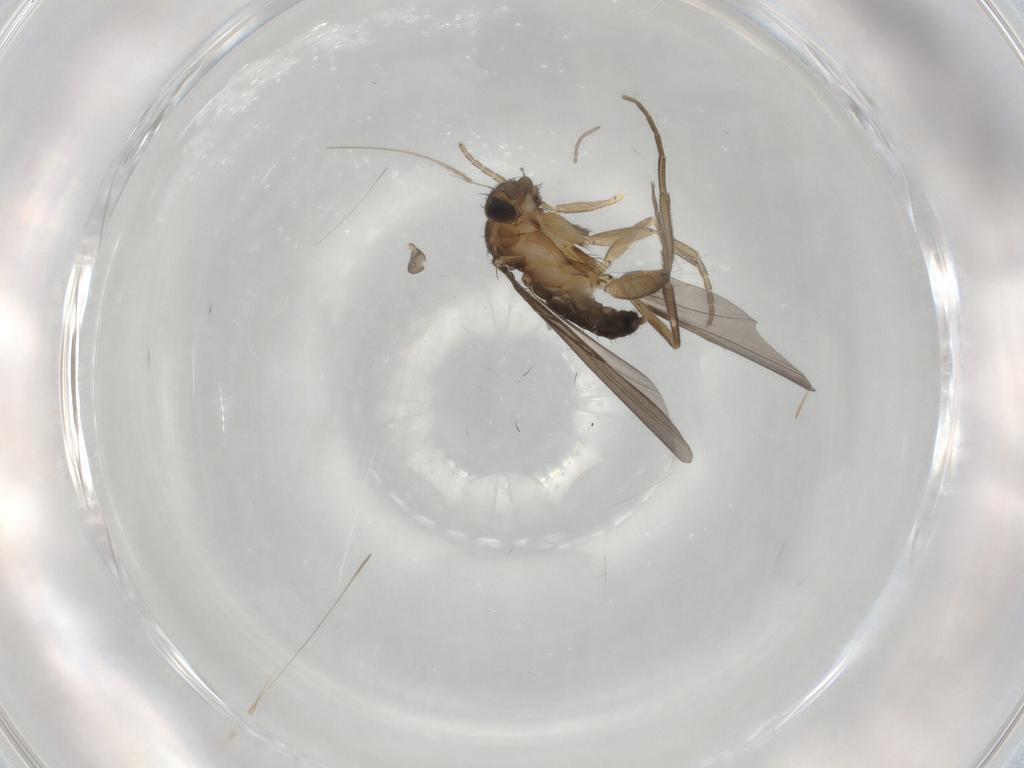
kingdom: Animalia
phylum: Arthropoda
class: Insecta
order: Diptera
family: Phoridae
